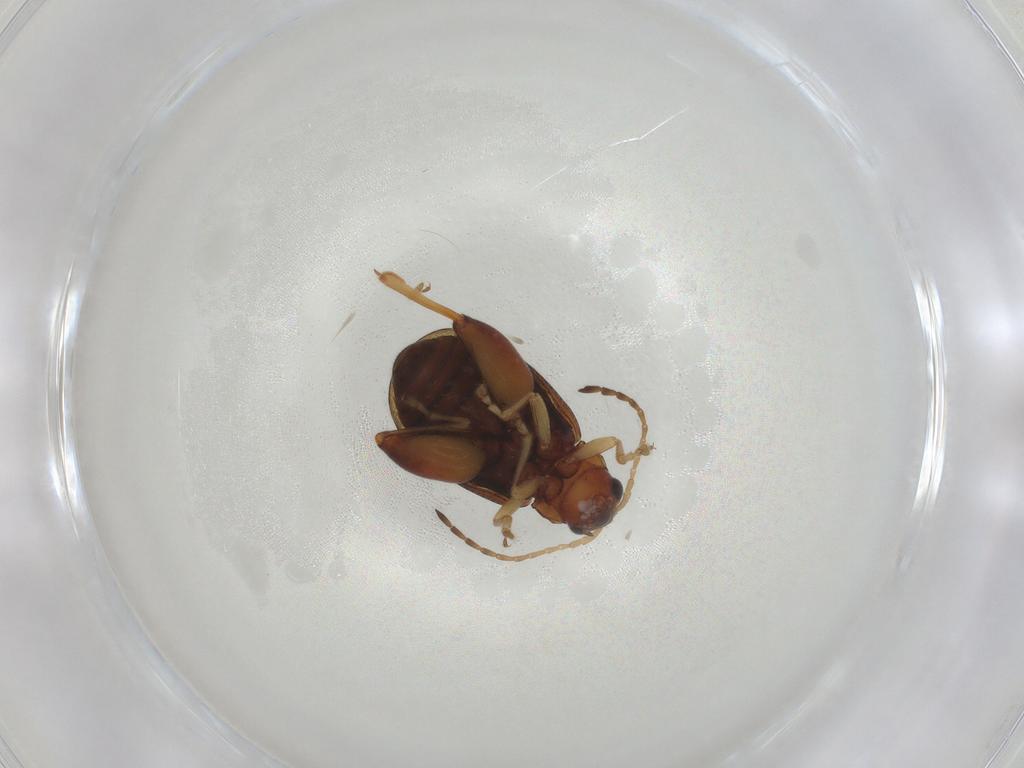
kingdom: Animalia
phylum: Arthropoda
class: Insecta
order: Coleoptera
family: Chrysomelidae
